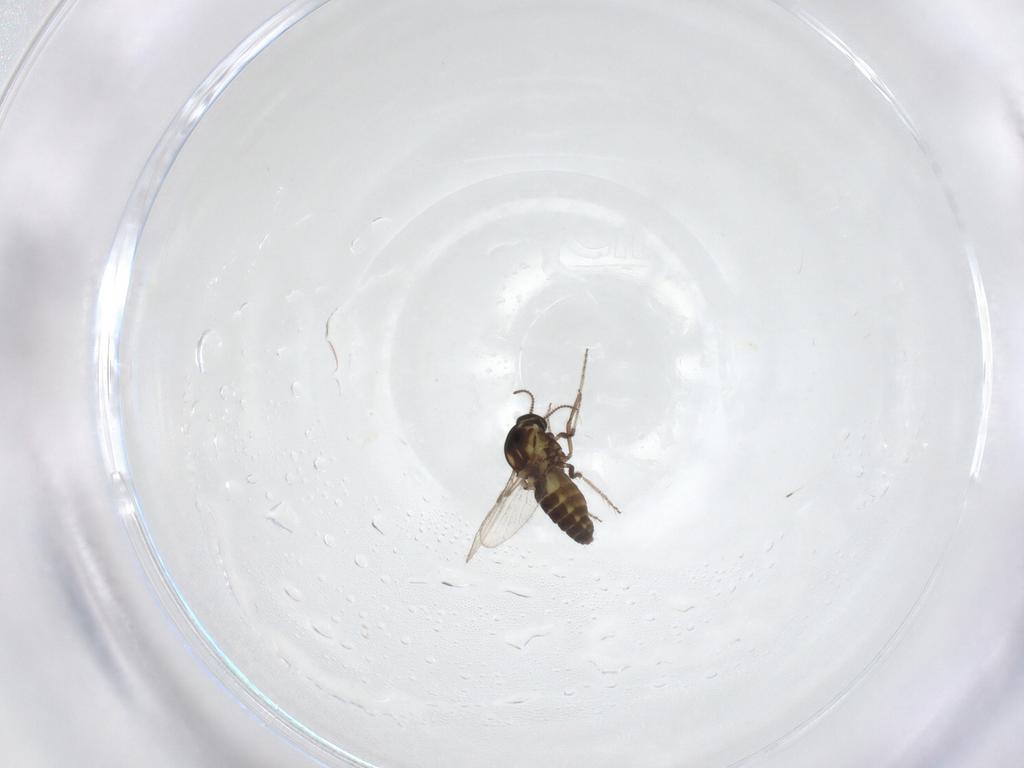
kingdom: Animalia
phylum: Arthropoda
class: Insecta
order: Diptera
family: Ceratopogonidae
